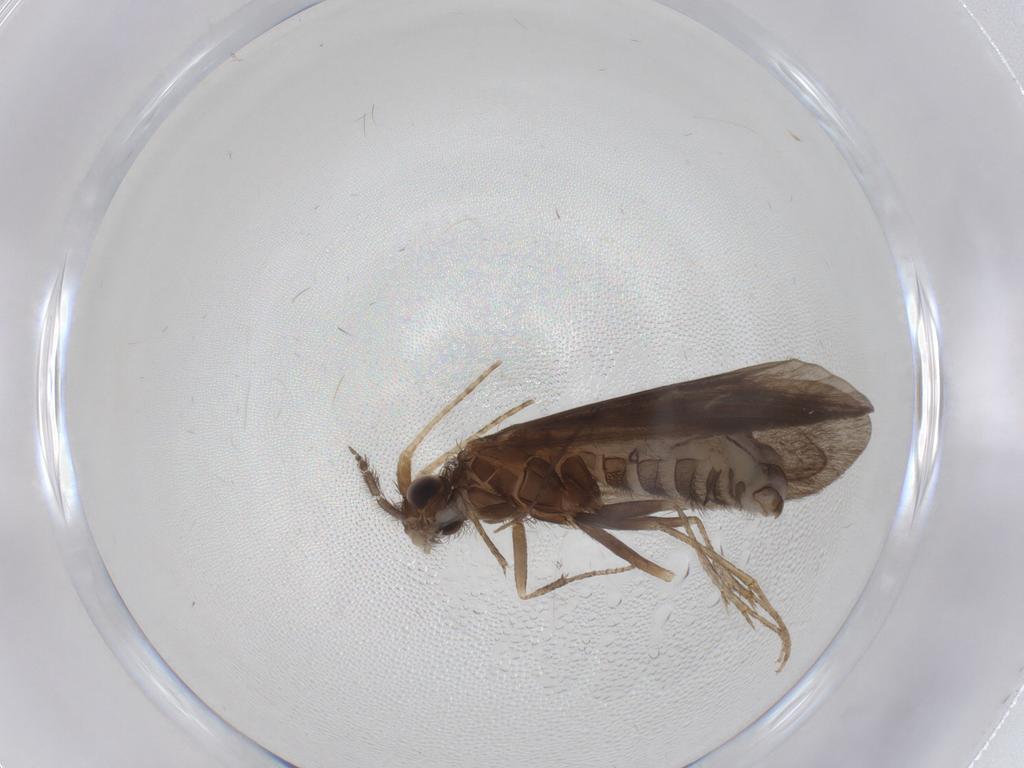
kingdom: Animalia
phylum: Arthropoda
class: Insecta
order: Trichoptera
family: Helicopsychidae
